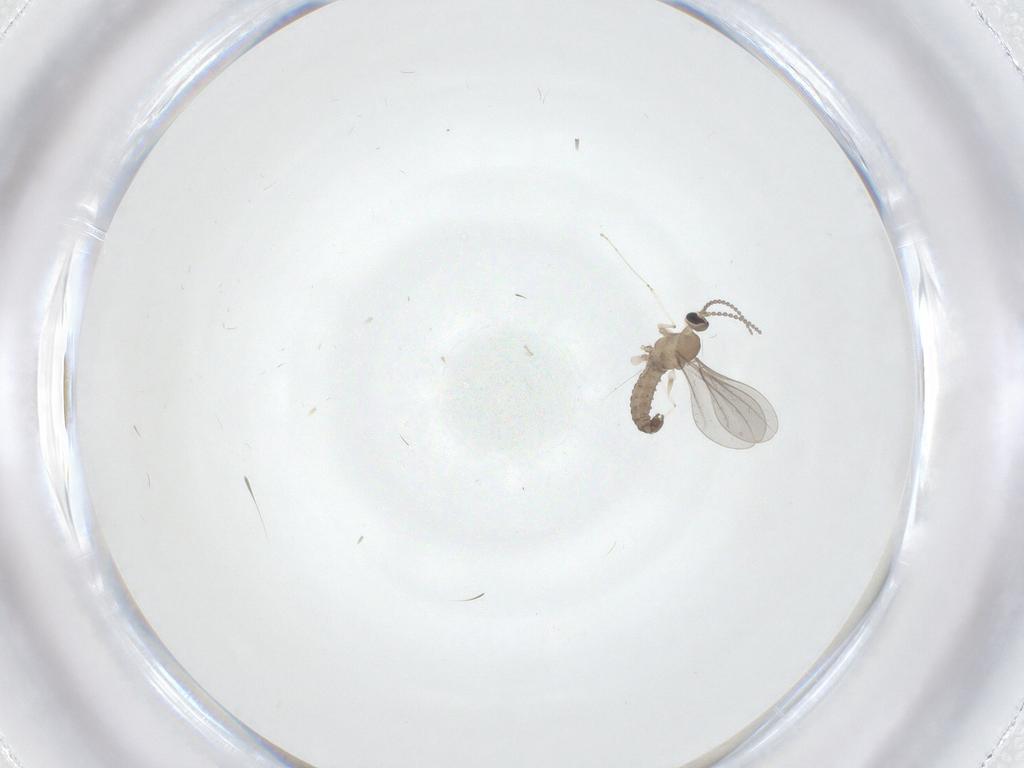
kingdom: Animalia
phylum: Arthropoda
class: Insecta
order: Diptera
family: Cecidomyiidae
